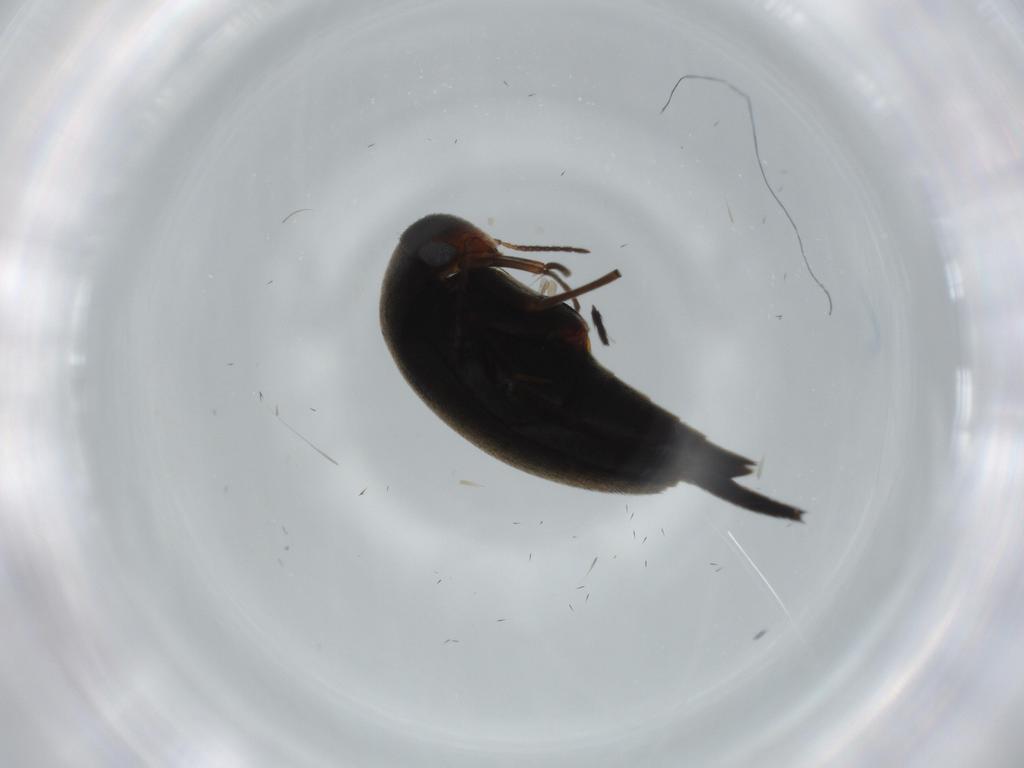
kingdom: Animalia
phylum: Arthropoda
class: Insecta
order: Coleoptera
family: Mordellidae
